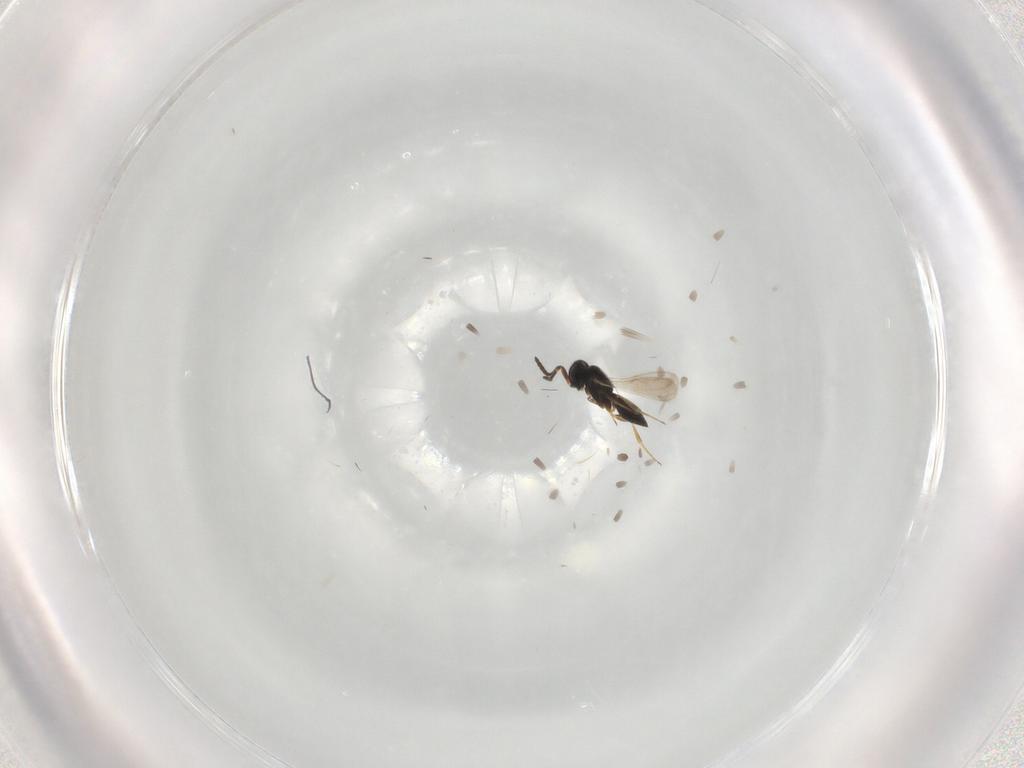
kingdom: Animalia
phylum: Arthropoda
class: Insecta
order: Hymenoptera
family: Scelionidae
